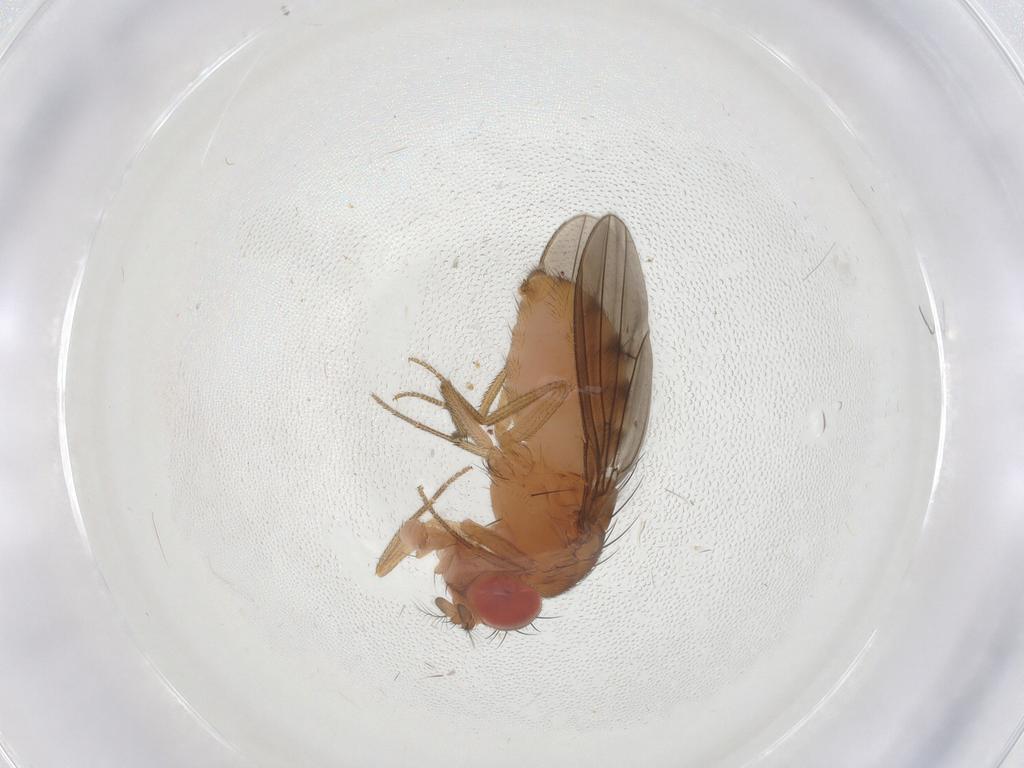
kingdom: Animalia
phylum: Arthropoda
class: Insecta
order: Diptera
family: Drosophilidae
